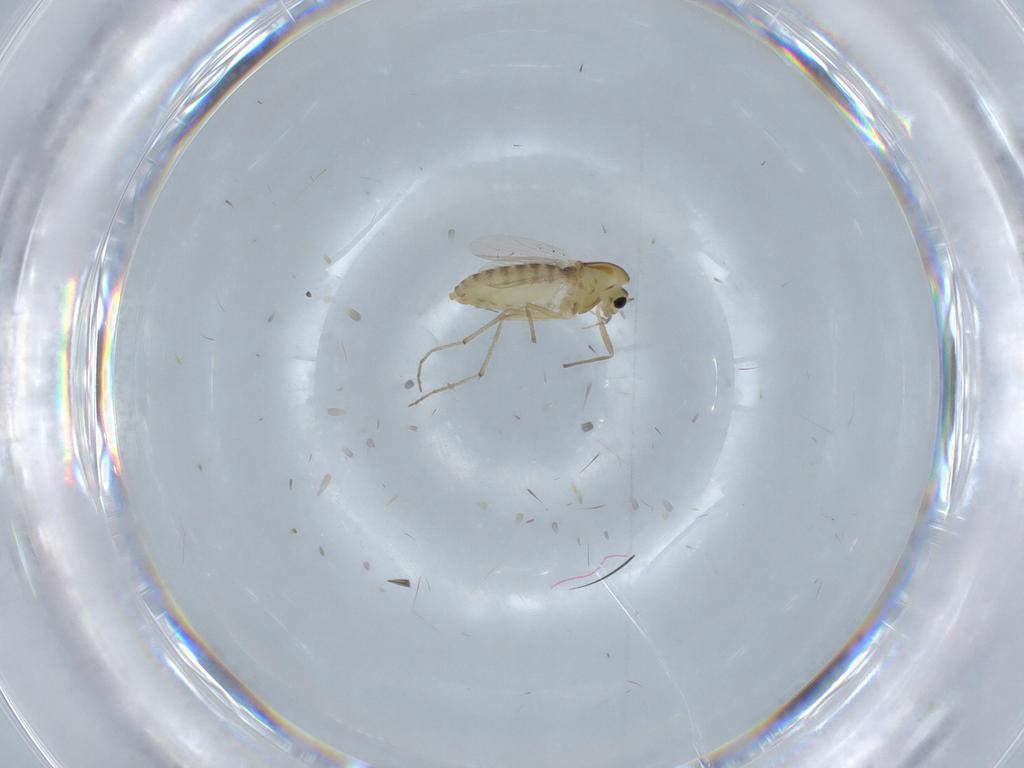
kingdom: Animalia
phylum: Arthropoda
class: Insecta
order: Diptera
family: Chironomidae
